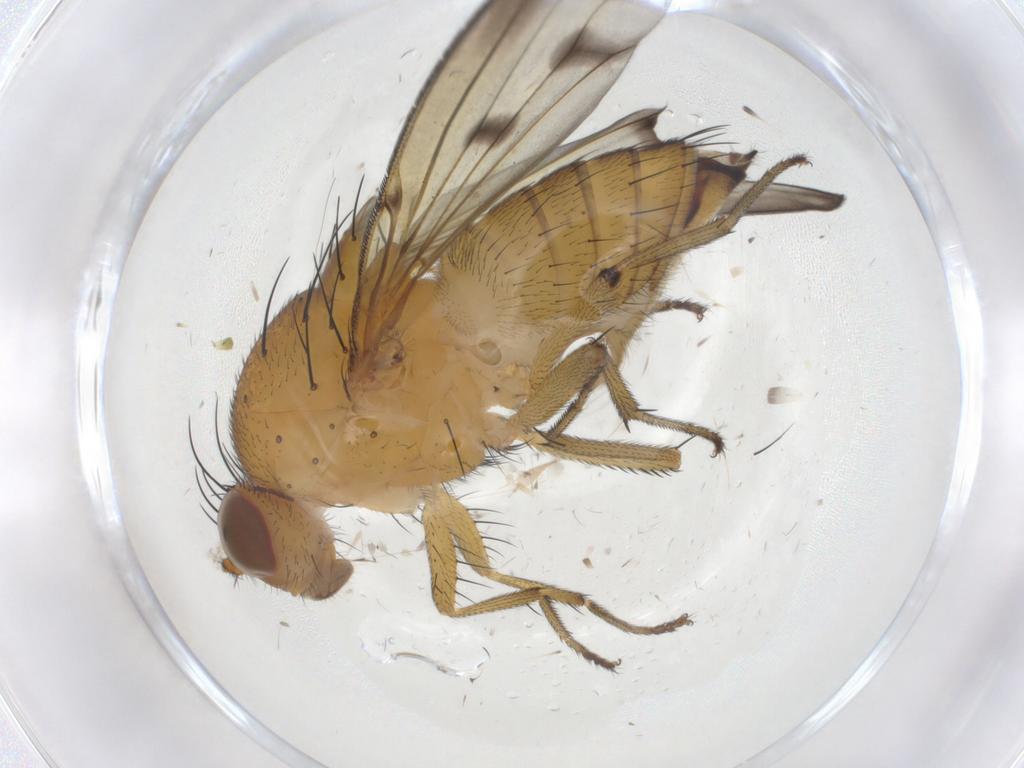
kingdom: Animalia
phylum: Arthropoda
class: Insecta
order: Diptera
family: Cecidomyiidae
